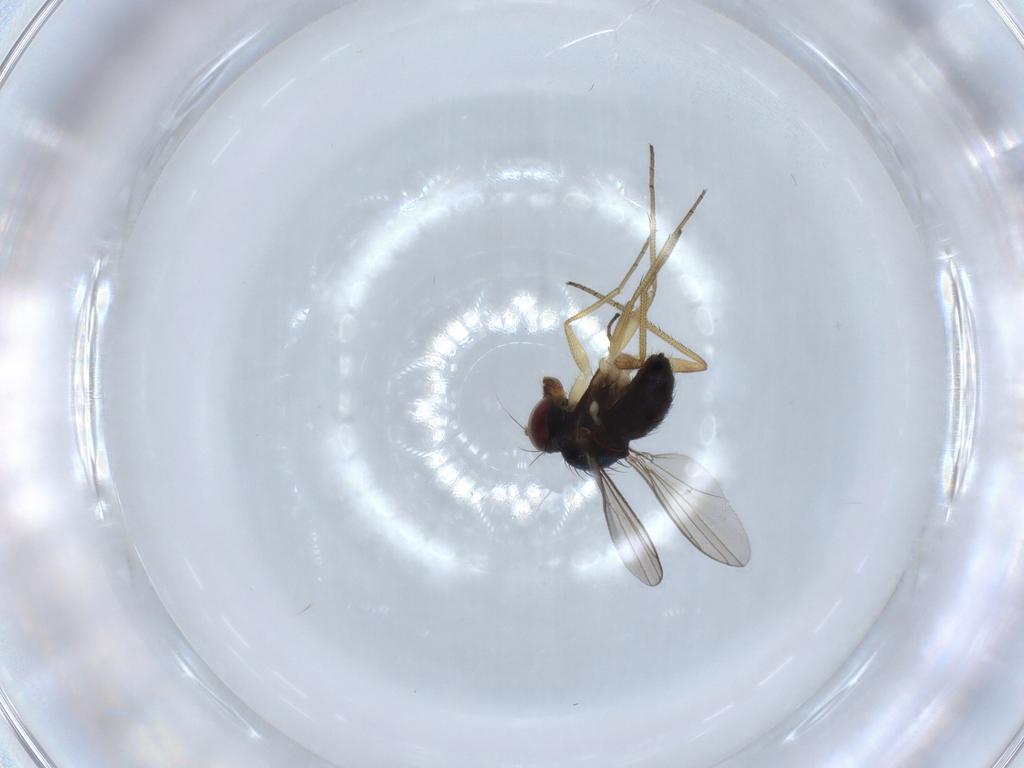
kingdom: Animalia
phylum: Arthropoda
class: Insecta
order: Diptera
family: Dolichopodidae
